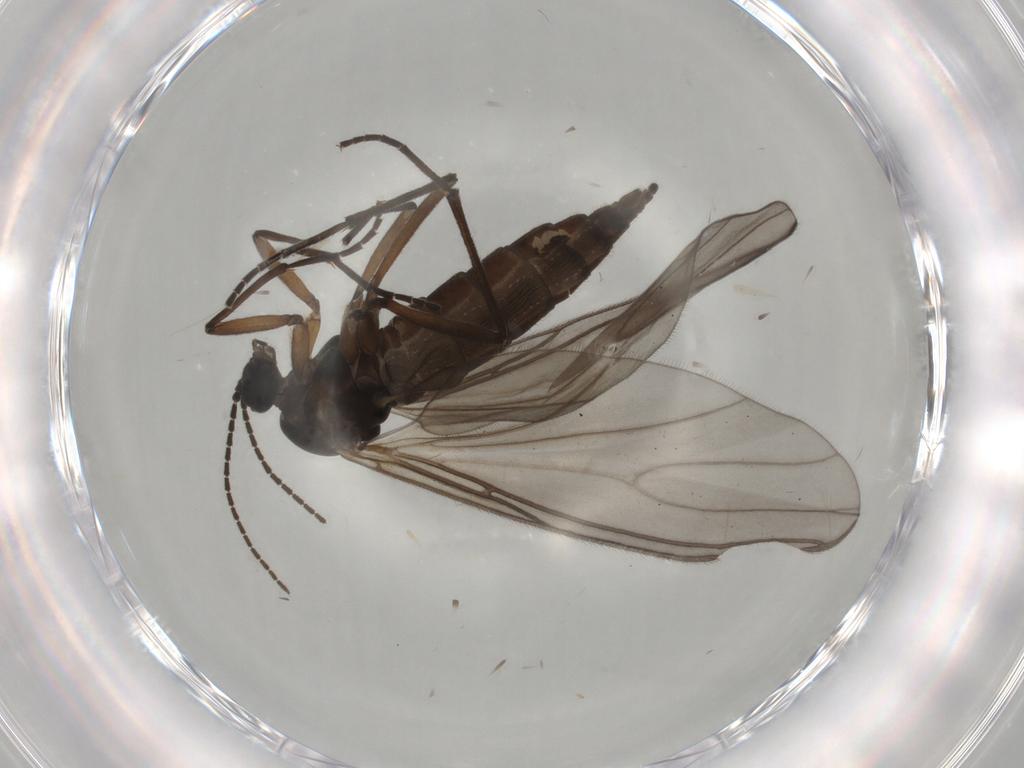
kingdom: Animalia
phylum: Arthropoda
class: Insecta
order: Diptera
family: Sciaridae
